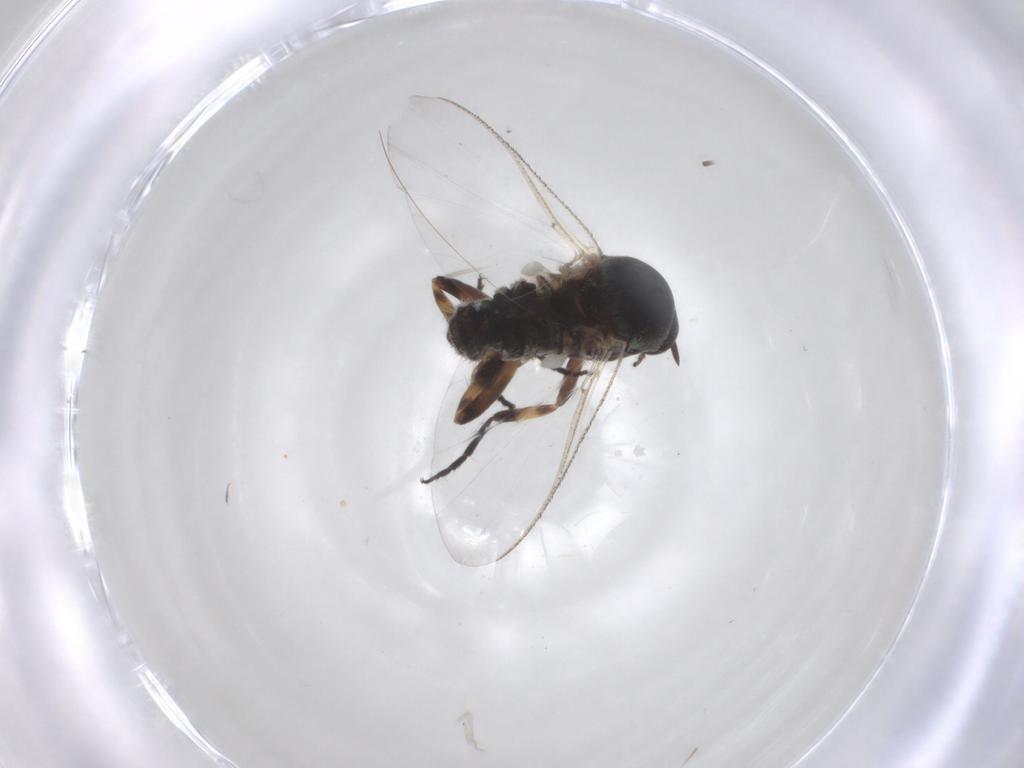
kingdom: Animalia
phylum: Arthropoda
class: Insecta
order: Diptera
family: Cecidomyiidae
